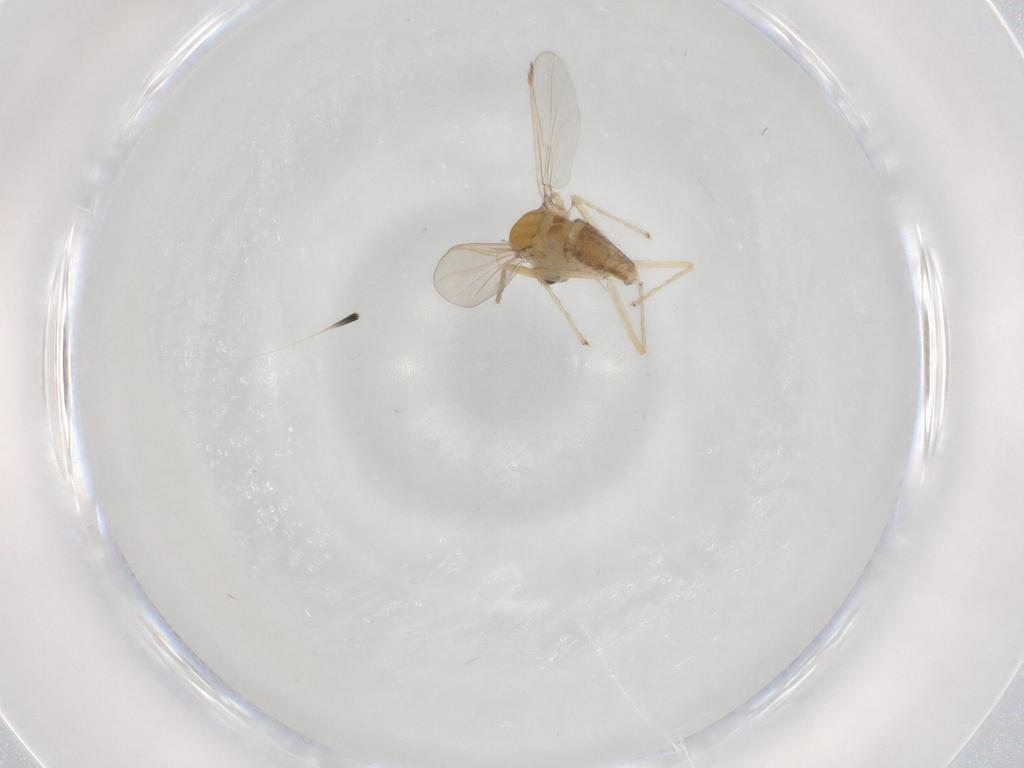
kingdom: Animalia
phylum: Arthropoda
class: Insecta
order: Diptera
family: Chironomidae
